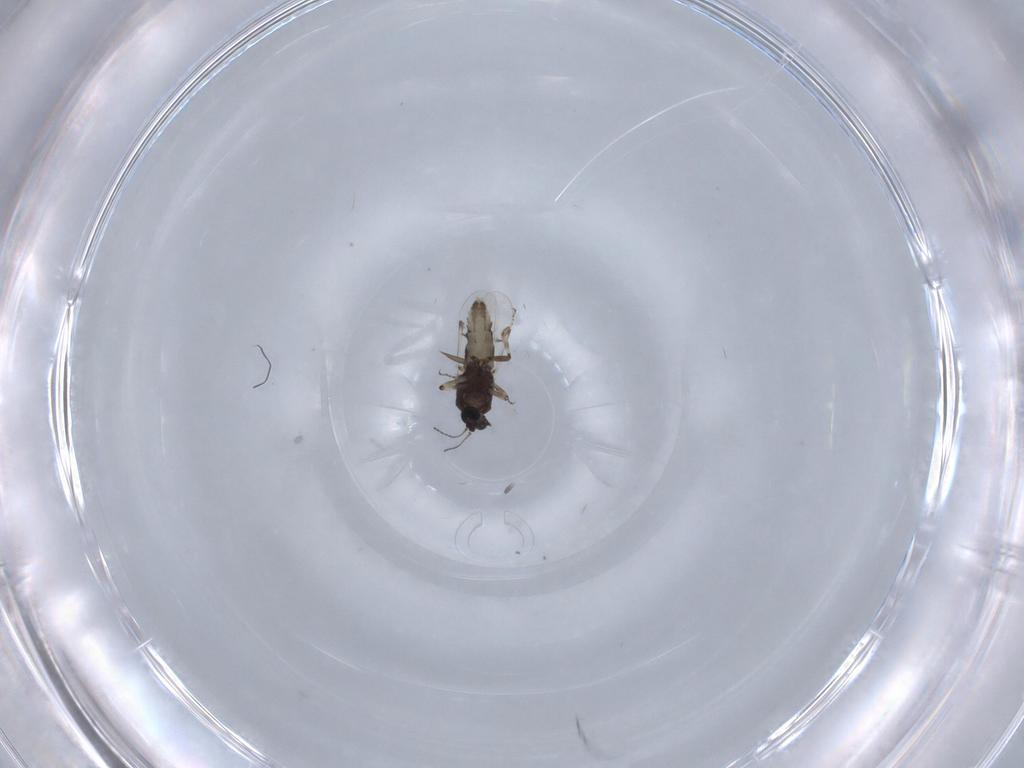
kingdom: Animalia
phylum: Arthropoda
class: Insecta
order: Diptera
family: Ceratopogonidae
